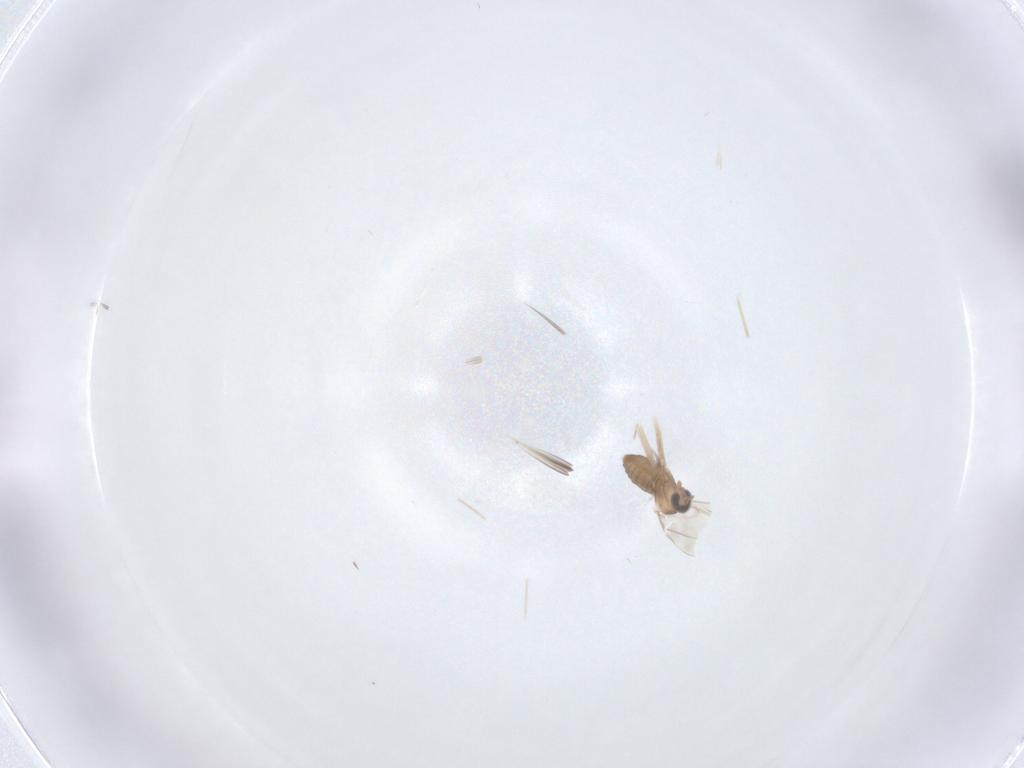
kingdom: Animalia
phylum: Arthropoda
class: Insecta
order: Diptera
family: Cecidomyiidae
